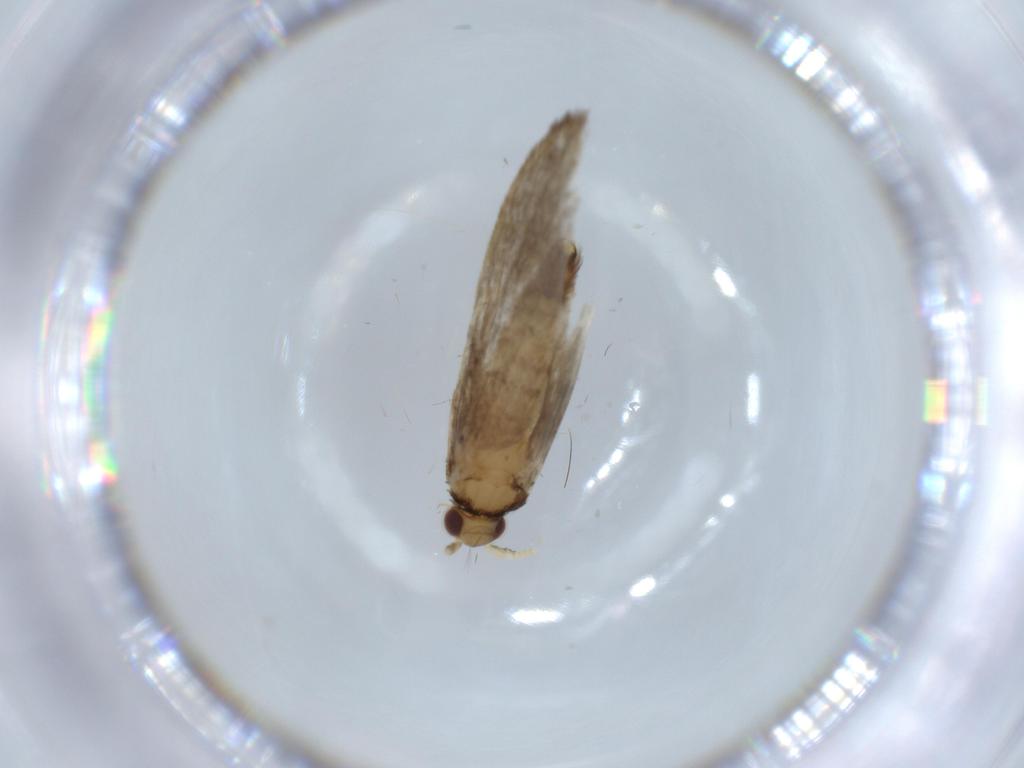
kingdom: Animalia
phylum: Arthropoda
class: Insecta
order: Lepidoptera
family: Tineidae
